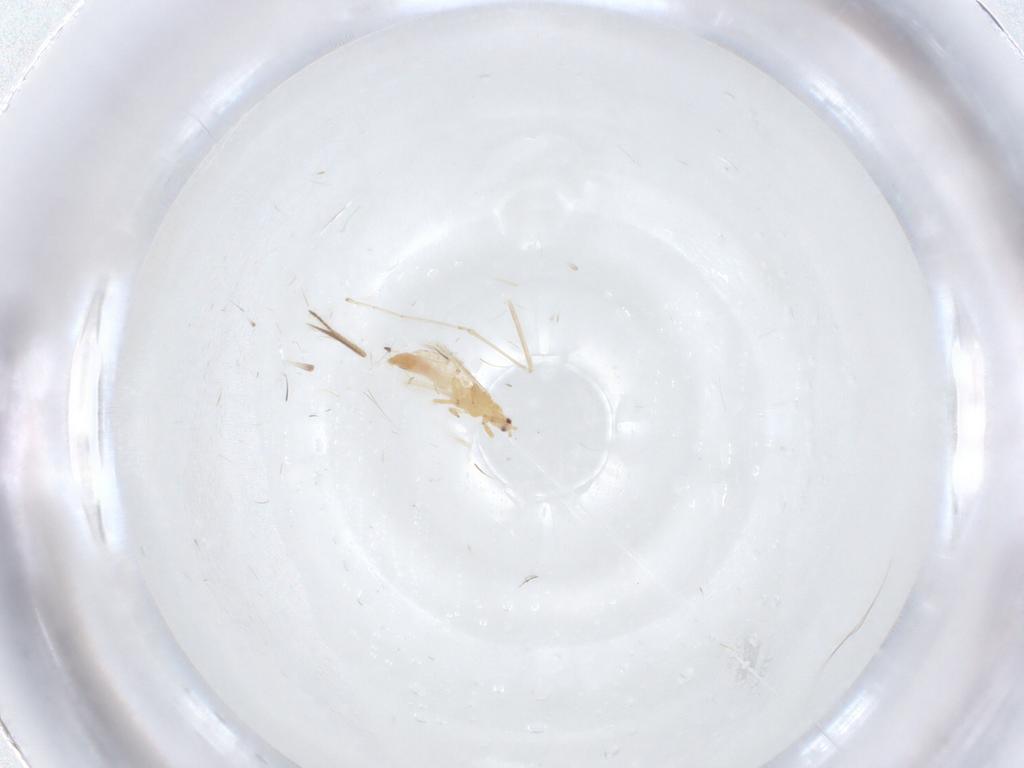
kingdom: Animalia
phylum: Arthropoda
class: Insecta
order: Thysanoptera
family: Thripidae
